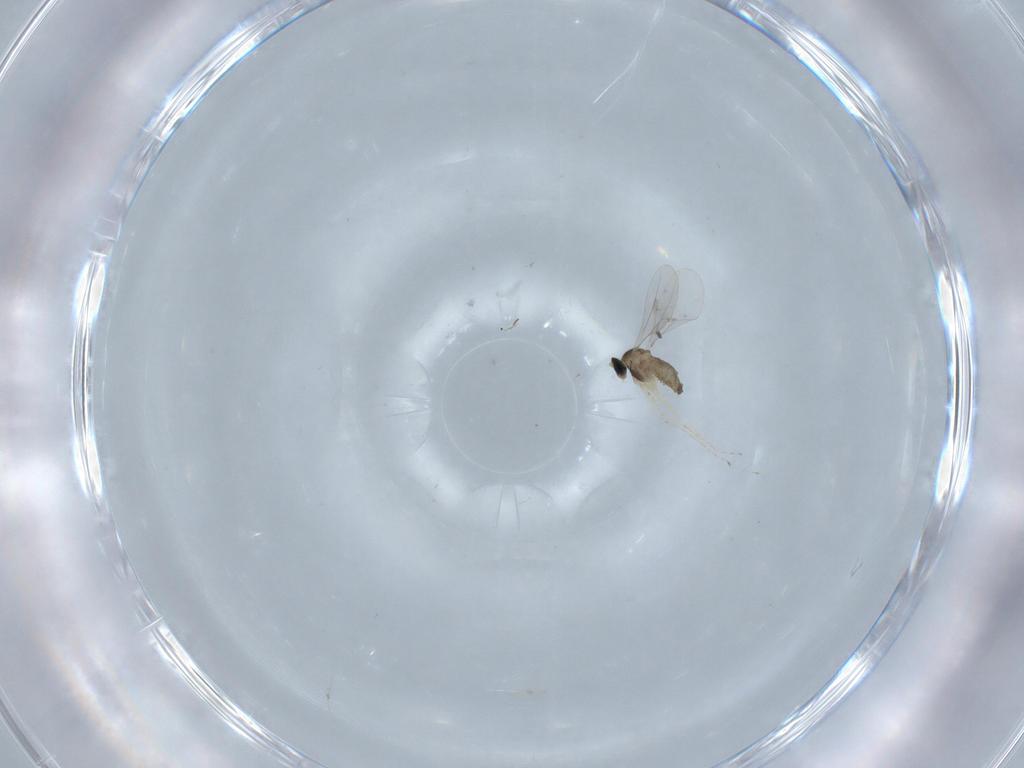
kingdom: Animalia
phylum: Arthropoda
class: Insecta
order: Diptera
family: Cecidomyiidae
